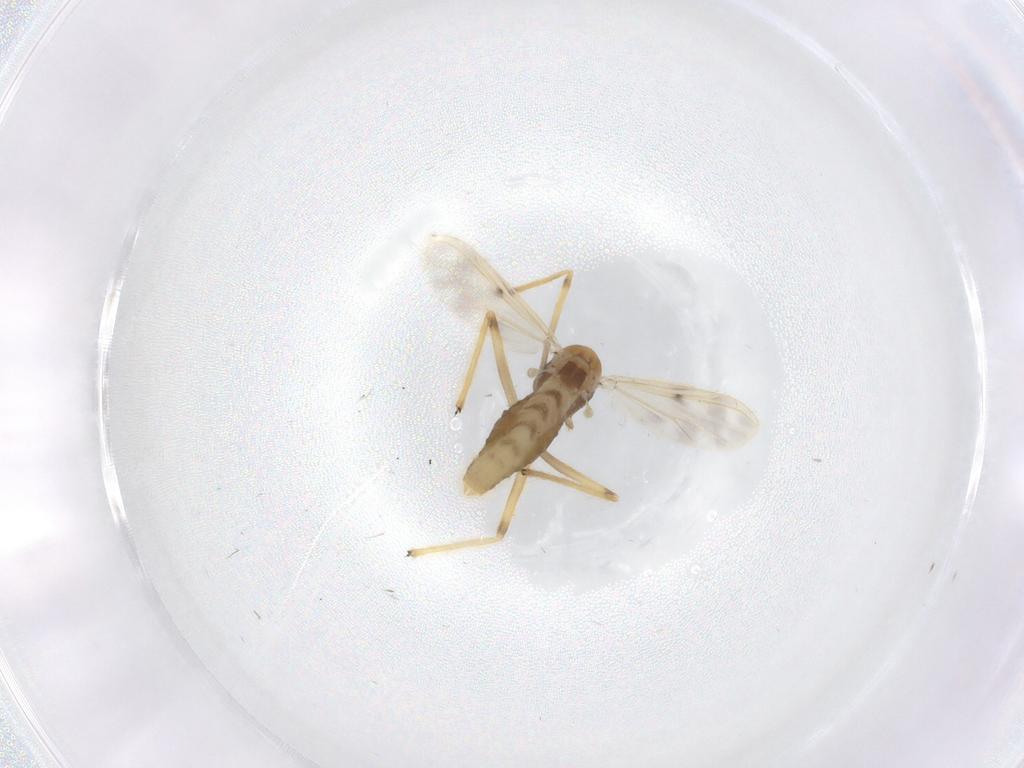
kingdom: Animalia
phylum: Arthropoda
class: Insecta
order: Diptera
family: Chironomidae
